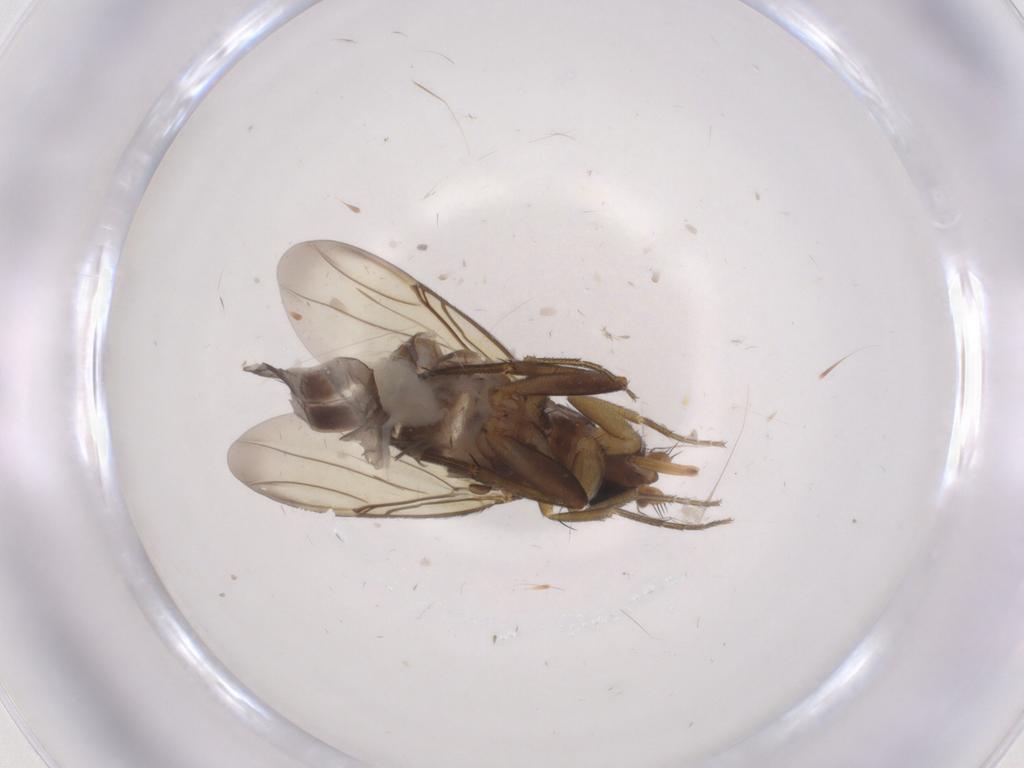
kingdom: Animalia
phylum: Arthropoda
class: Insecta
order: Diptera
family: Phoridae
